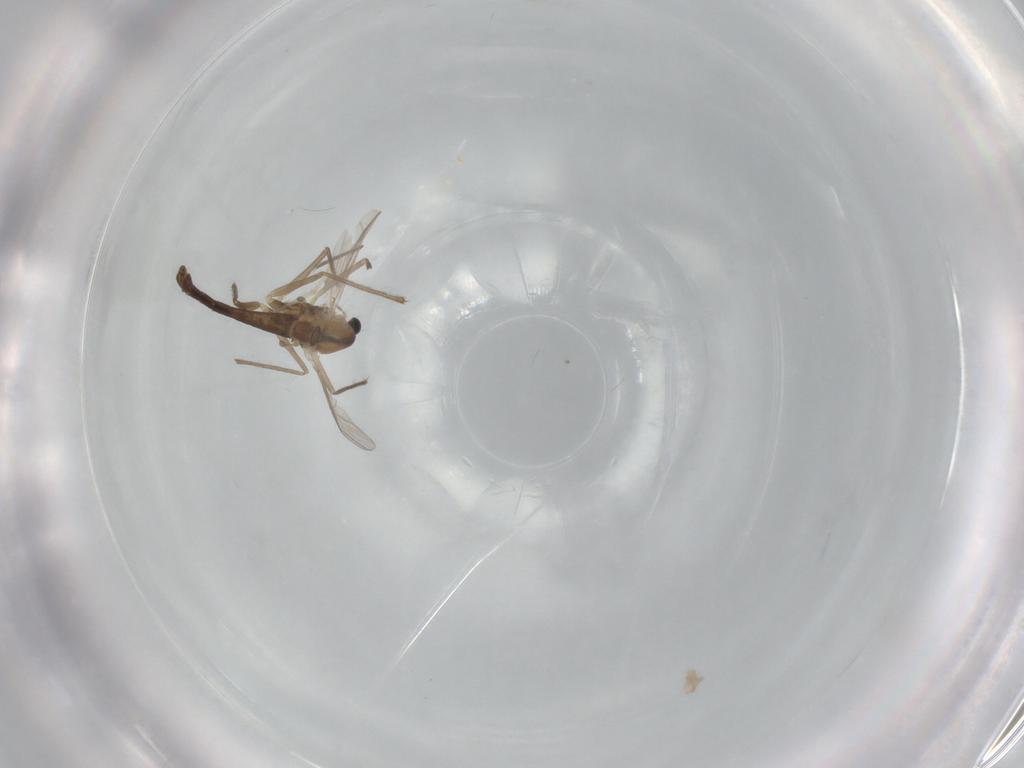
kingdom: Animalia
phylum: Arthropoda
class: Insecta
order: Diptera
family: Chironomidae
